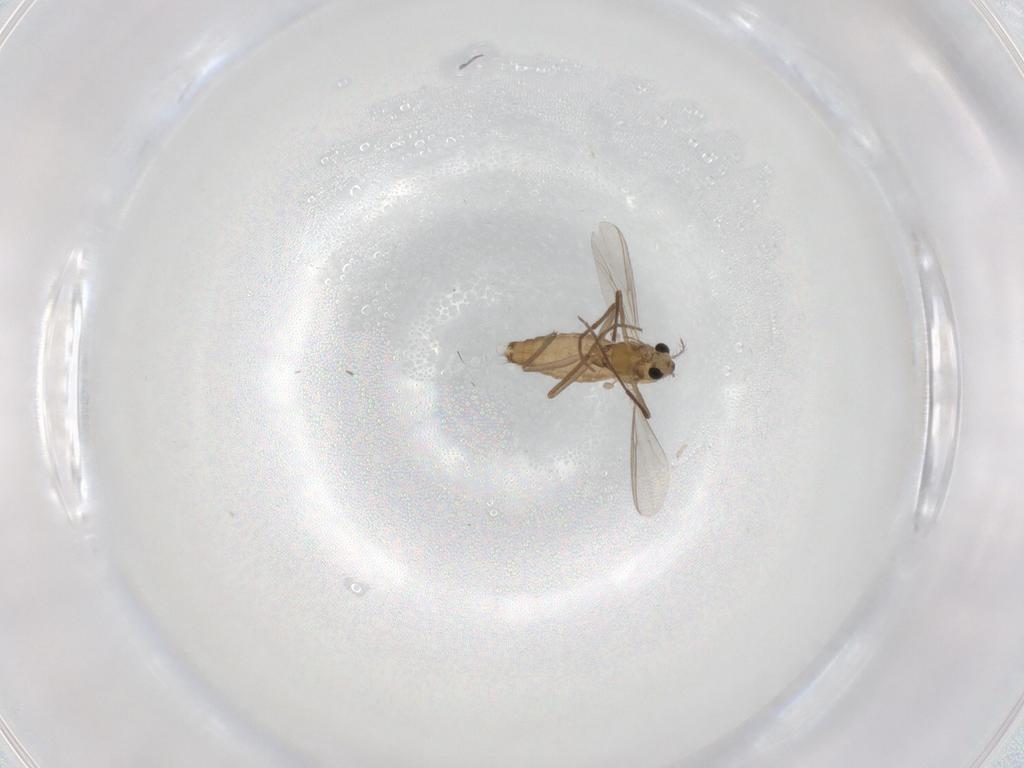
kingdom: Animalia
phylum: Arthropoda
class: Insecta
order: Diptera
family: Chironomidae
